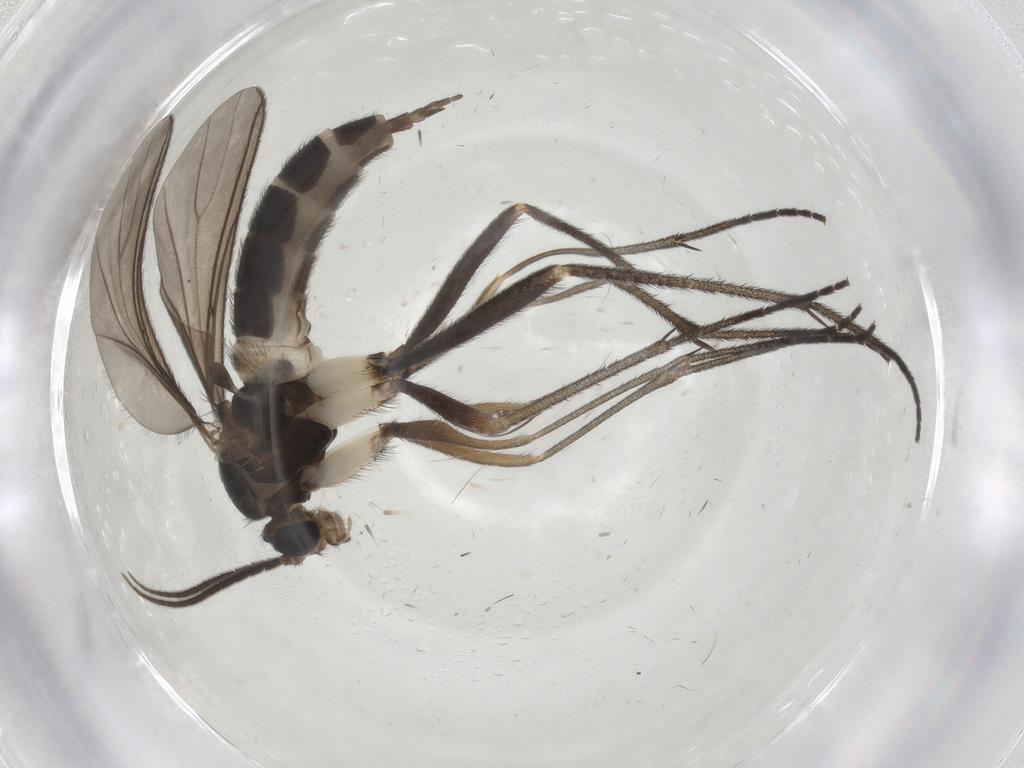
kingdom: Animalia
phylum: Arthropoda
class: Insecta
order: Diptera
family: Sciaridae
